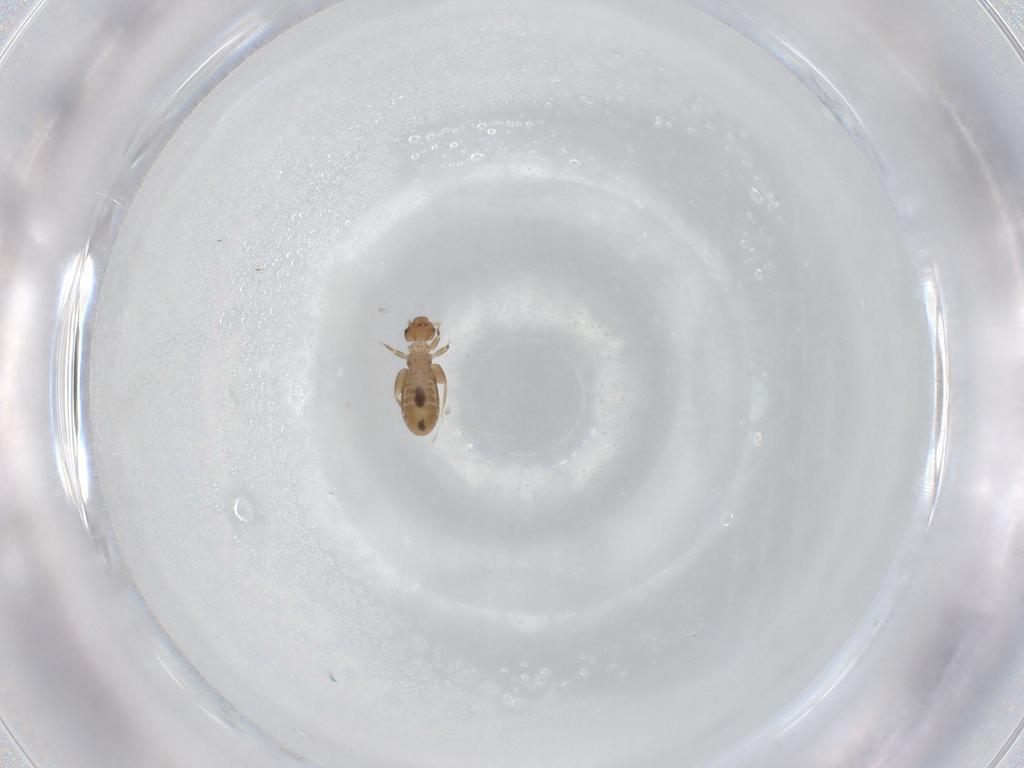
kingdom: Animalia
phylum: Arthropoda
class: Insecta
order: Psocodea
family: Liposcelididae
